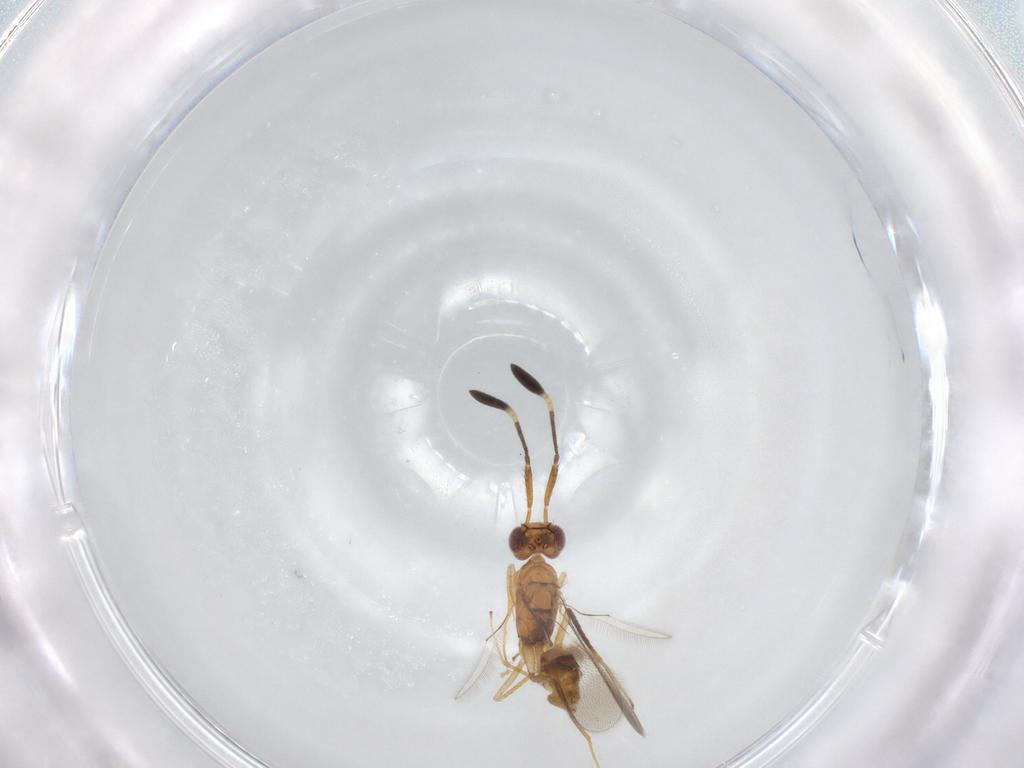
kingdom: Animalia
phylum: Arthropoda
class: Insecta
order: Hymenoptera
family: Mymaridae
